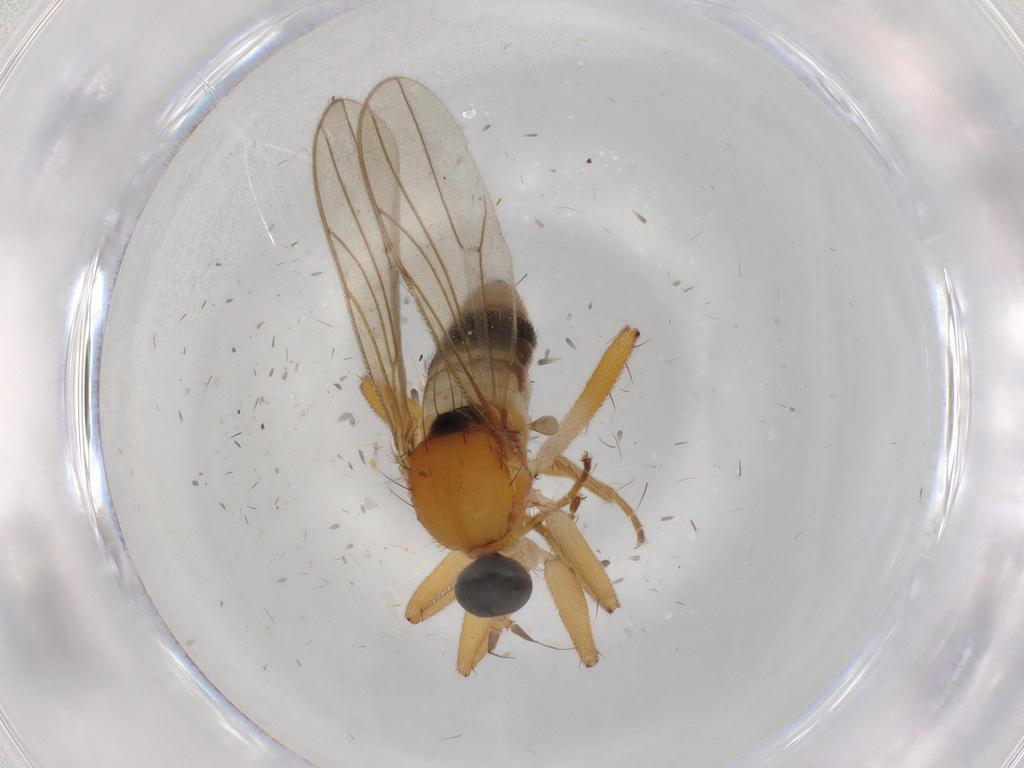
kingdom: Animalia
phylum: Arthropoda
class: Insecta
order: Diptera
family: Hybotidae
